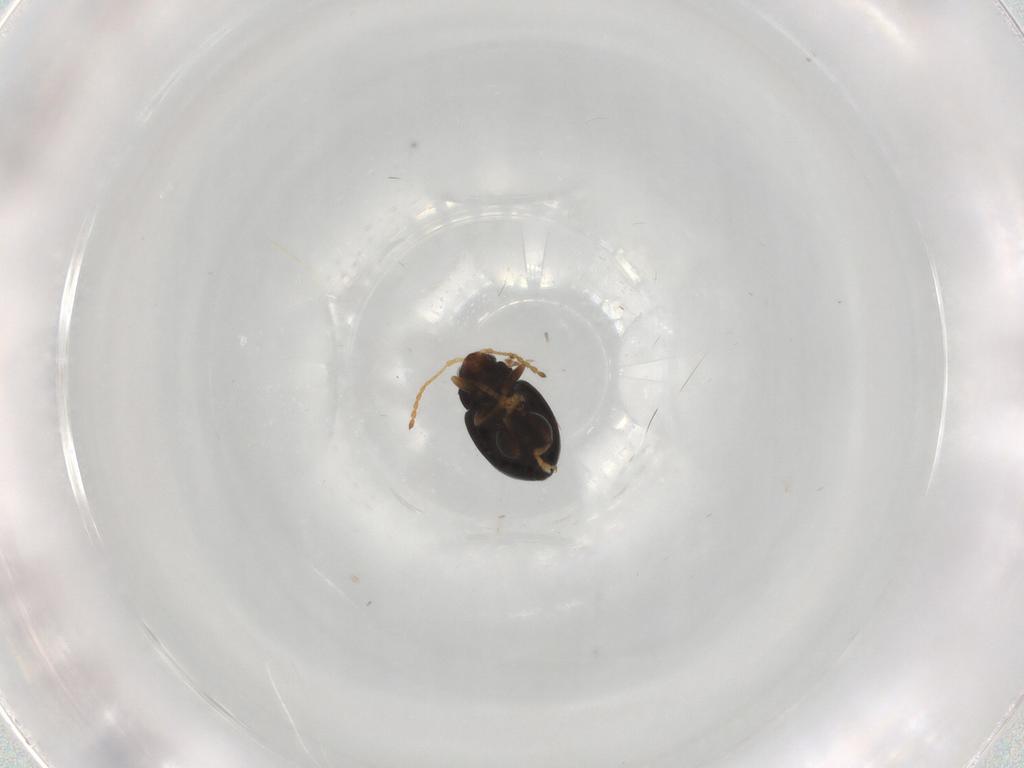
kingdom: Animalia
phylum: Arthropoda
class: Insecta
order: Coleoptera
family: Chrysomelidae
